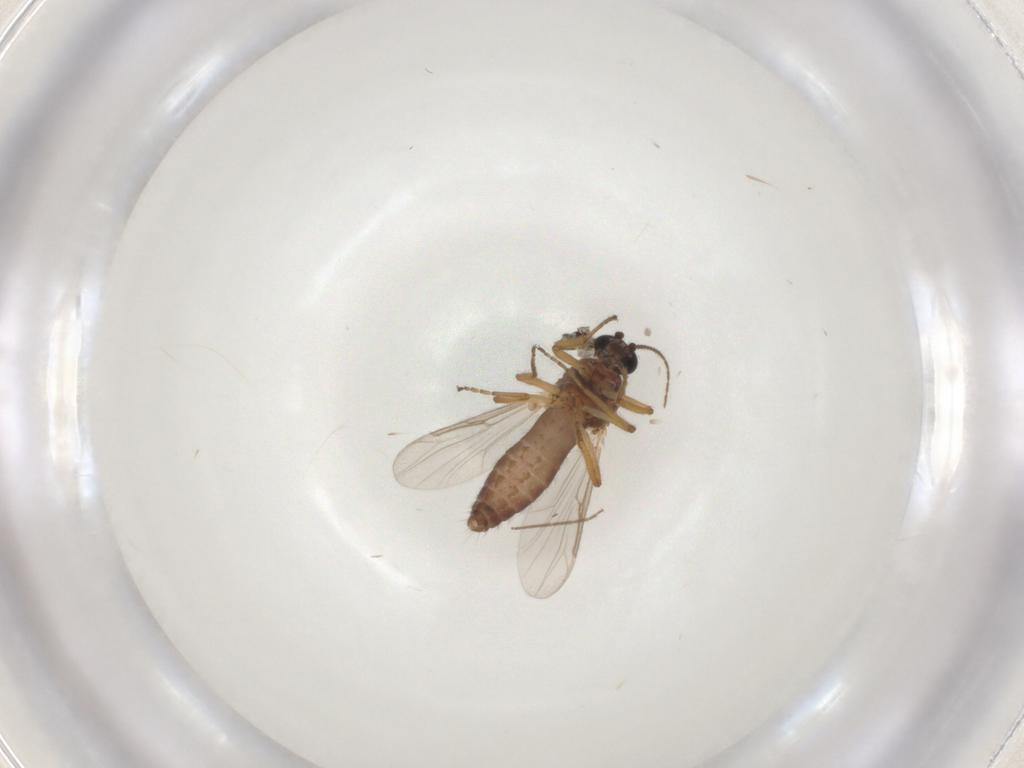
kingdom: Animalia
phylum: Arthropoda
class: Insecta
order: Diptera
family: Ceratopogonidae
